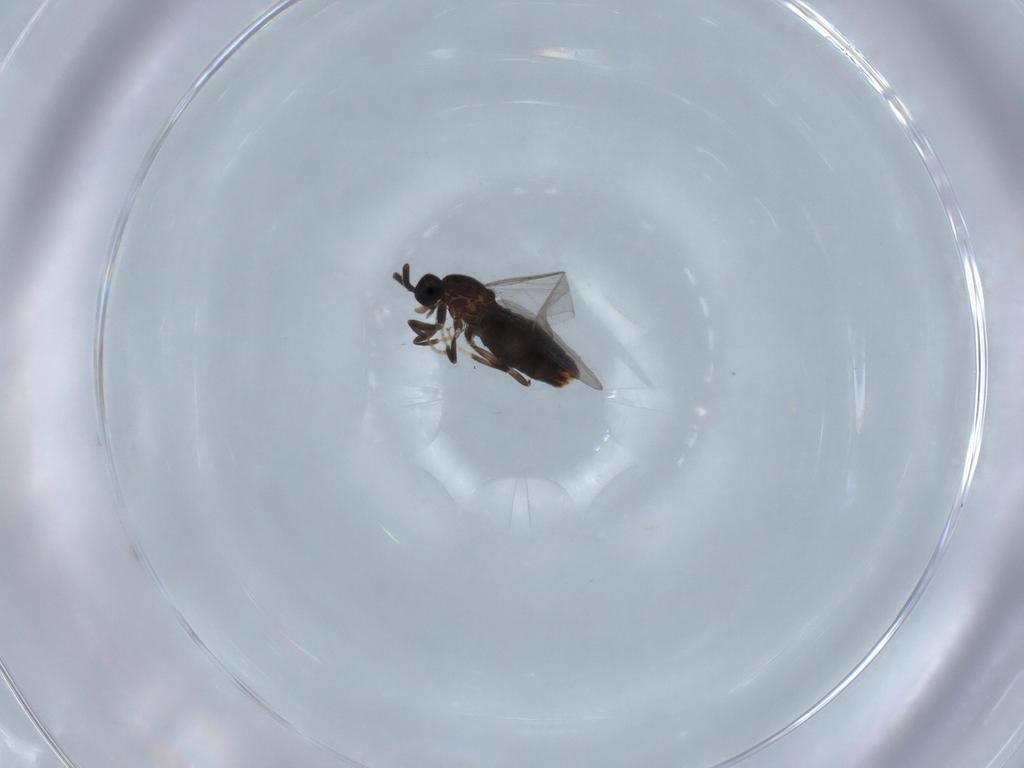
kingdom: Animalia
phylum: Arthropoda
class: Insecta
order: Diptera
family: Scatopsidae
